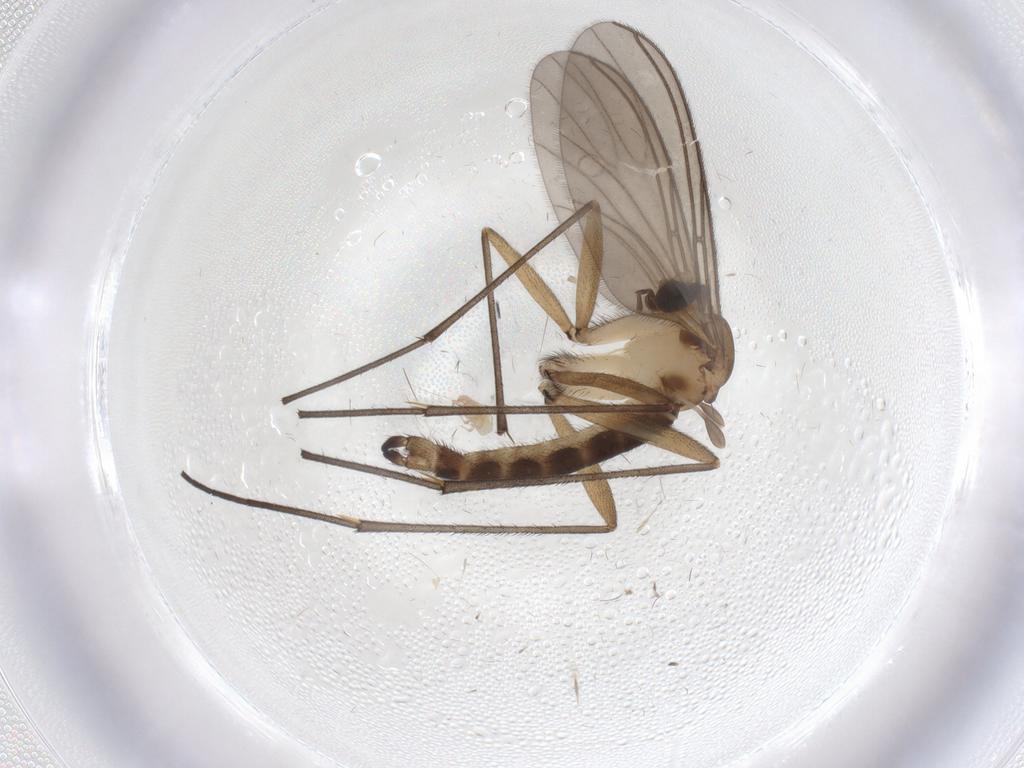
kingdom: Animalia
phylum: Arthropoda
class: Insecta
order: Diptera
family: Sciaridae
